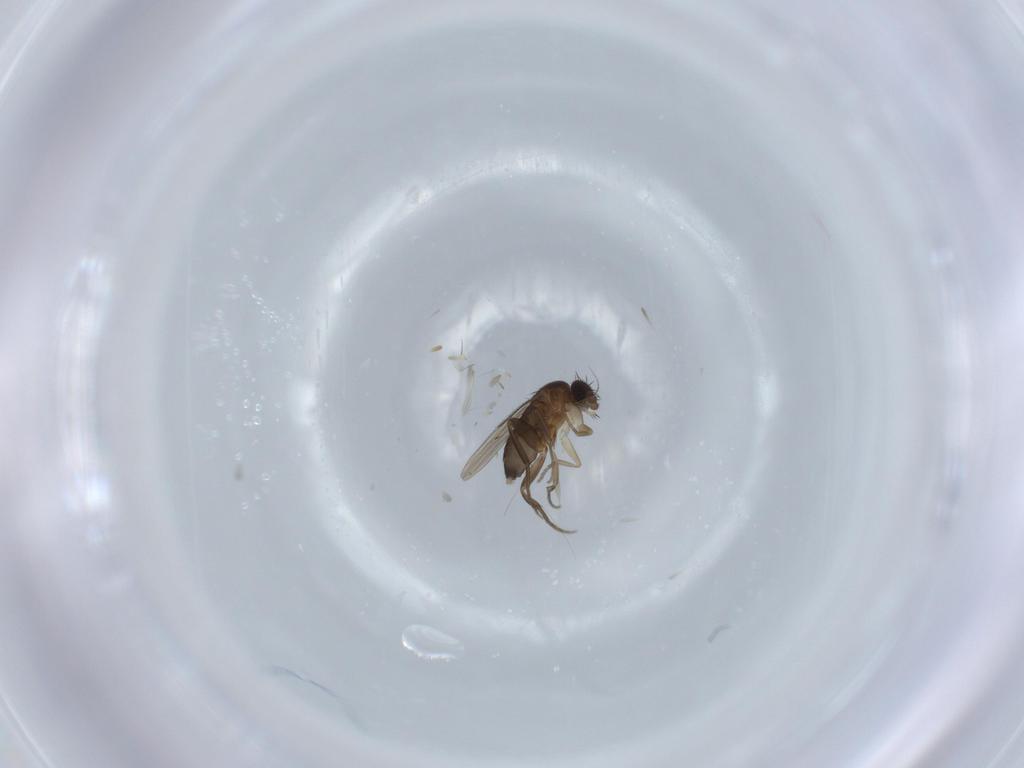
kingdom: Animalia
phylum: Arthropoda
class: Insecta
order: Diptera
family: Phoridae
